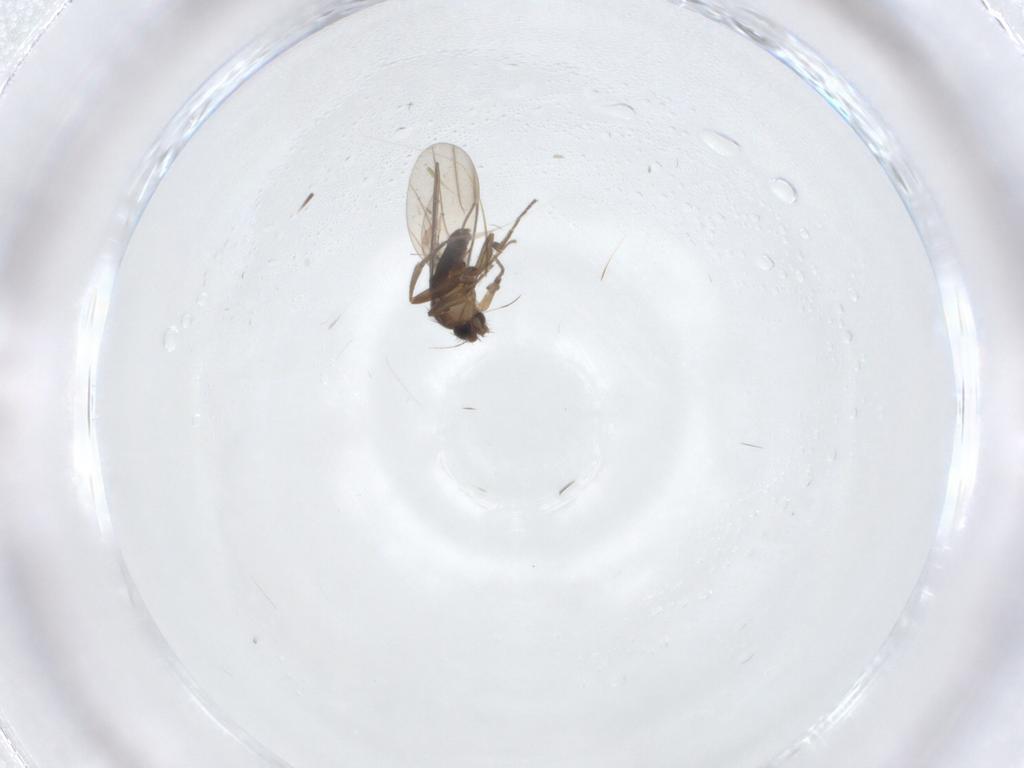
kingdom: Animalia
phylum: Arthropoda
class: Insecta
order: Diptera
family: Phoridae
